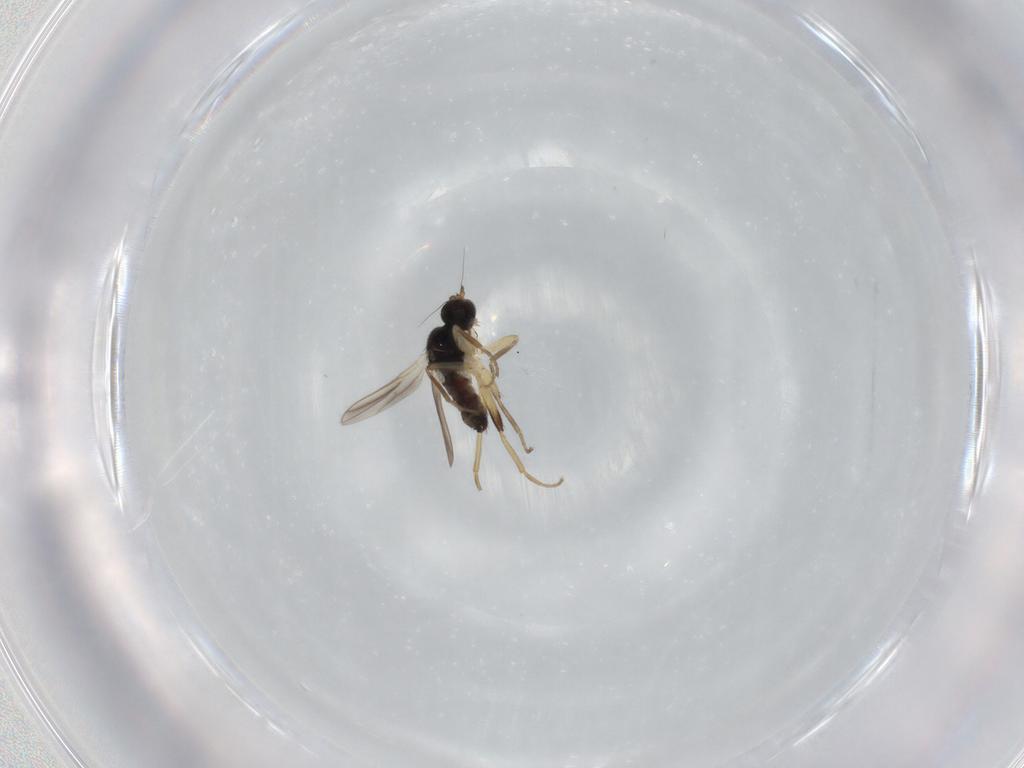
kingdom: Animalia
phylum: Arthropoda
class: Insecta
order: Diptera
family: Hybotidae
